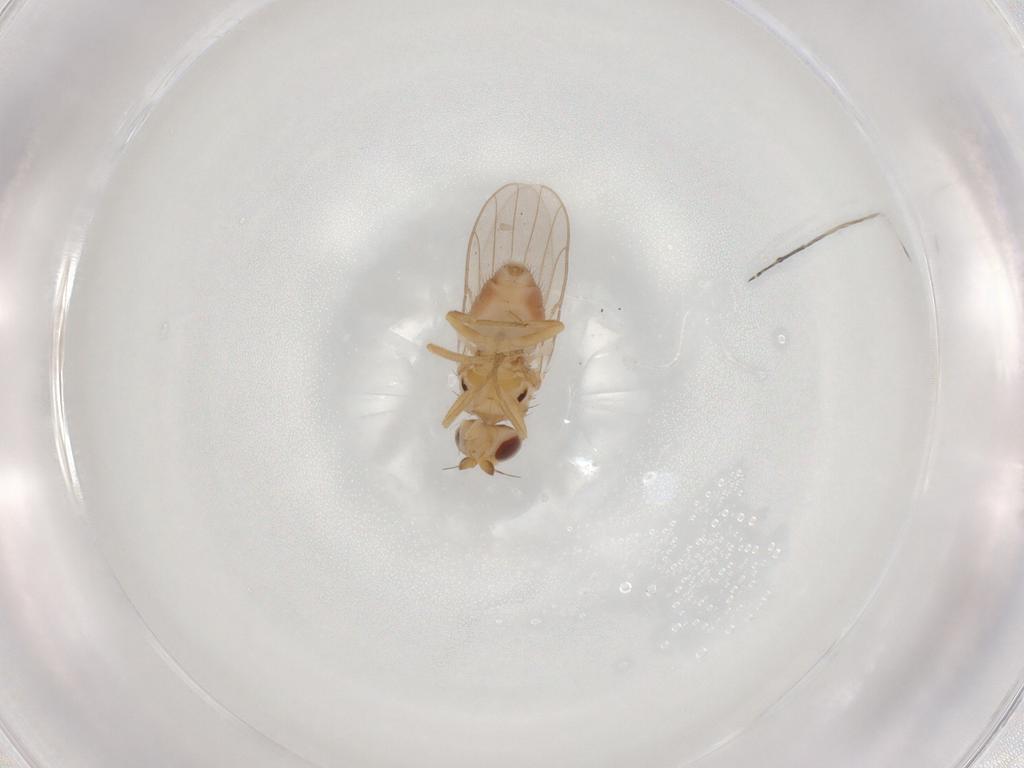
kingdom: Animalia
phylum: Arthropoda
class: Insecta
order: Diptera
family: Chloropidae
